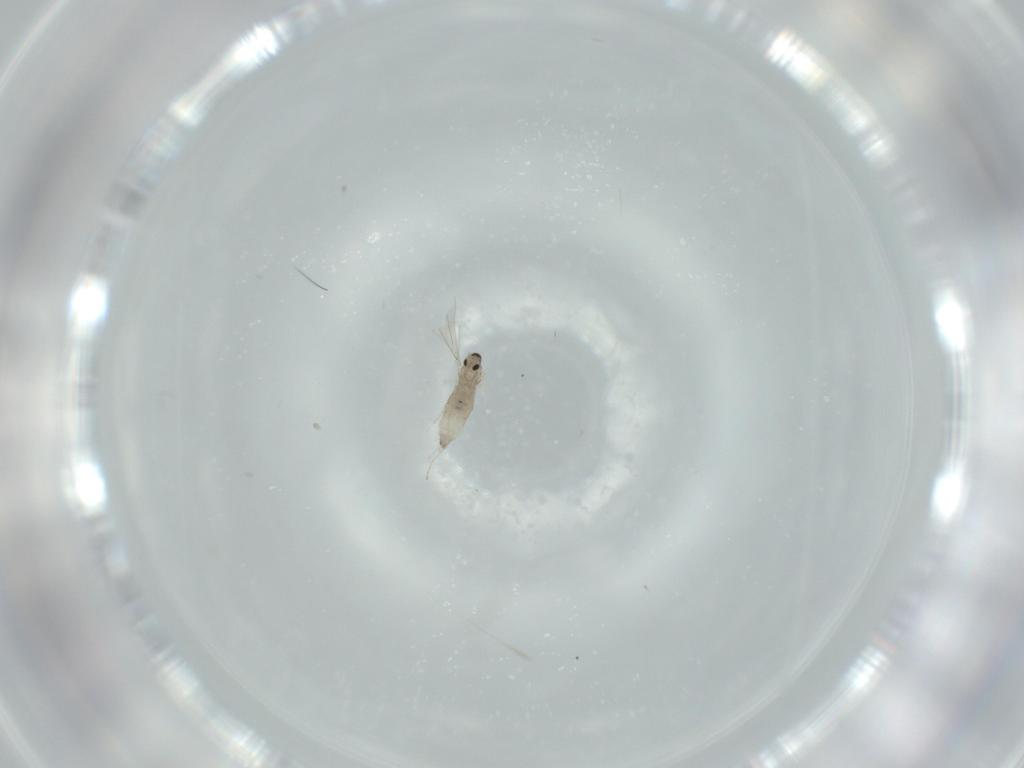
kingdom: Animalia
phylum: Arthropoda
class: Insecta
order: Diptera
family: Cecidomyiidae
